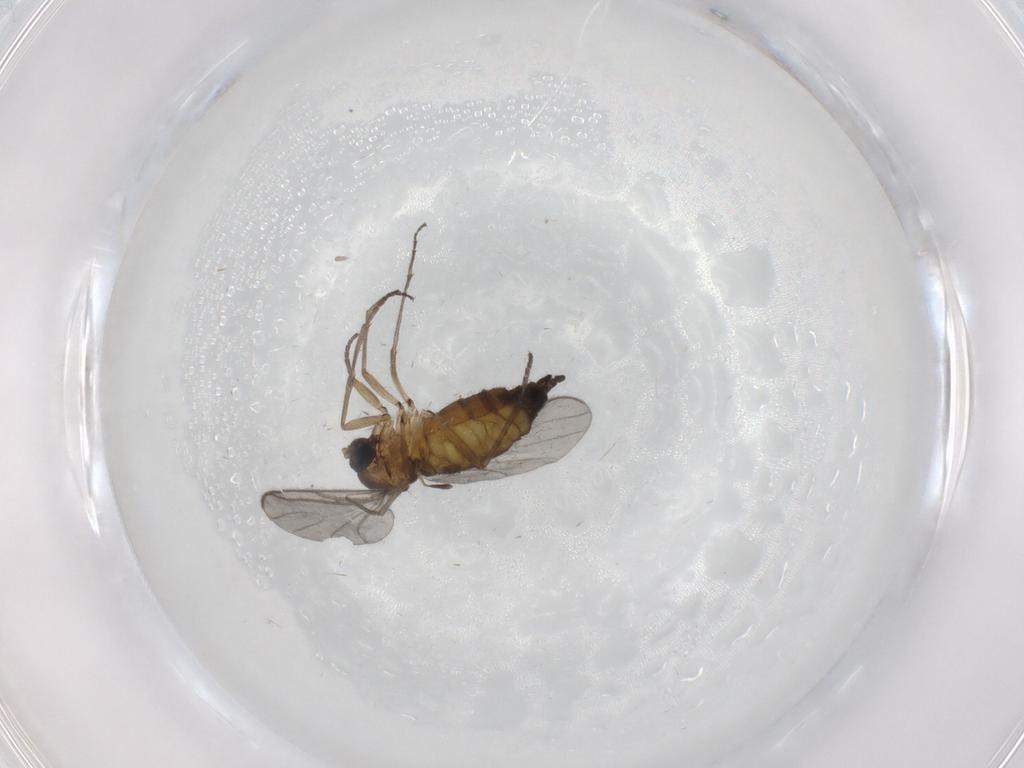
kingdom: Animalia
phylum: Arthropoda
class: Insecta
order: Diptera
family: Sciaridae
